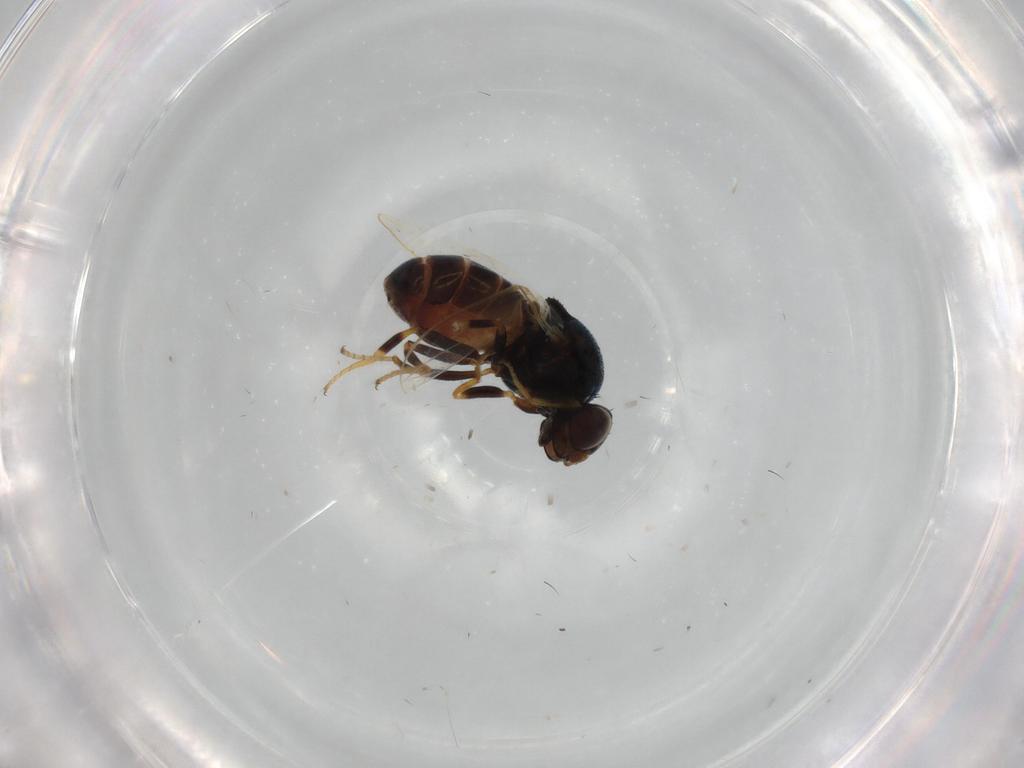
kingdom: Animalia
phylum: Arthropoda
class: Insecta
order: Diptera
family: Chloropidae
